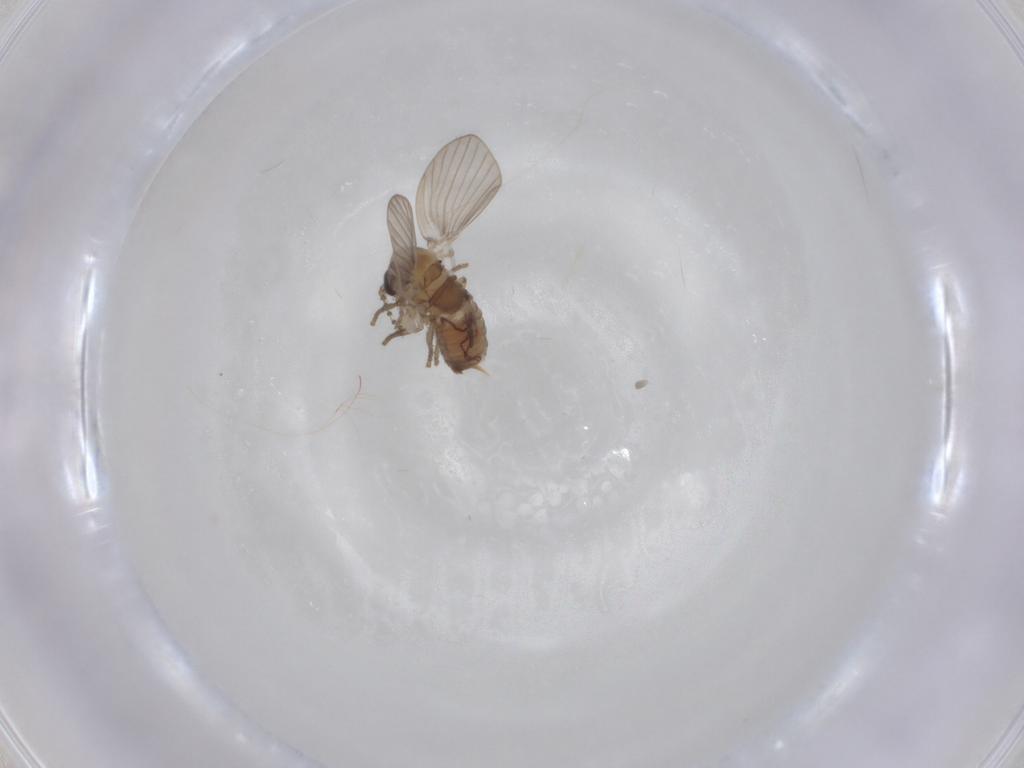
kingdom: Animalia
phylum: Arthropoda
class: Insecta
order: Diptera
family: Psychodidae
